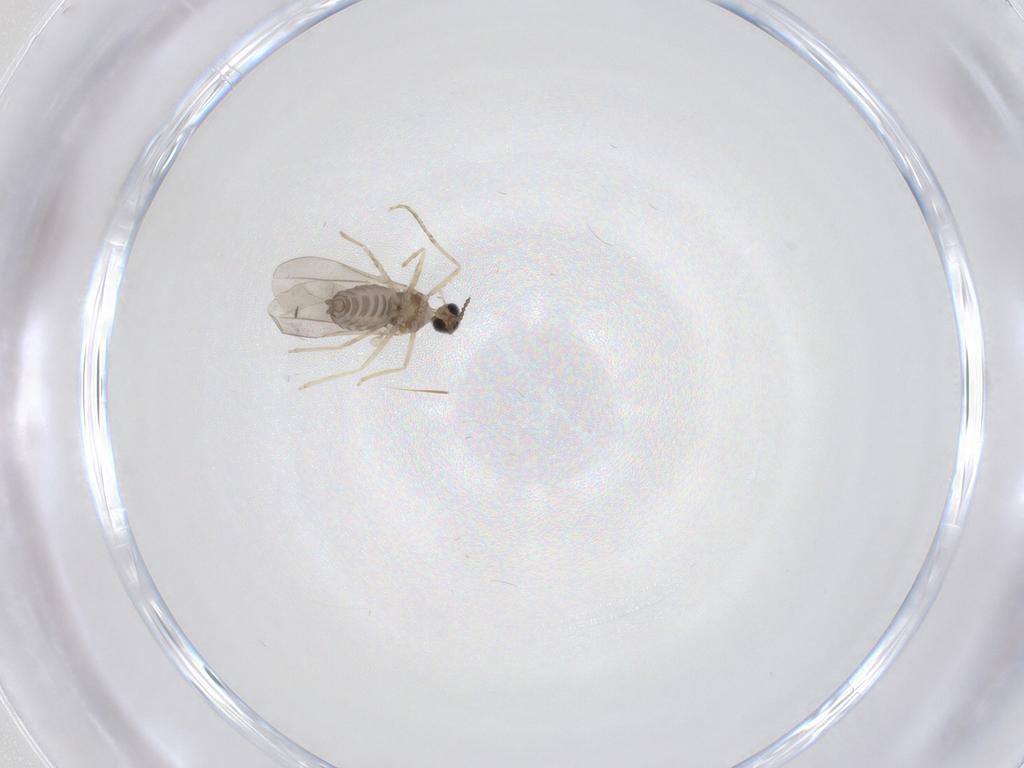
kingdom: Animalia
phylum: Arthropoda
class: Insecta
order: Diptera
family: Cecidomyiidae
